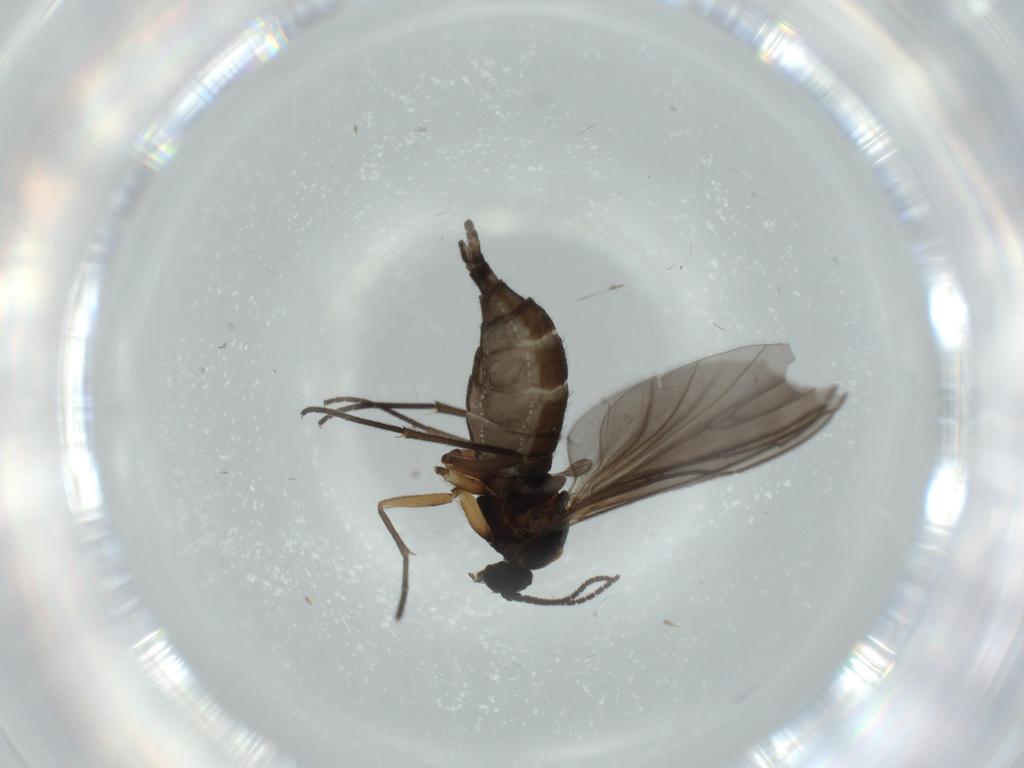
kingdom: Animalia
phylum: Arthropoda
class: Insecta
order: Diptera
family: Sciaridae
